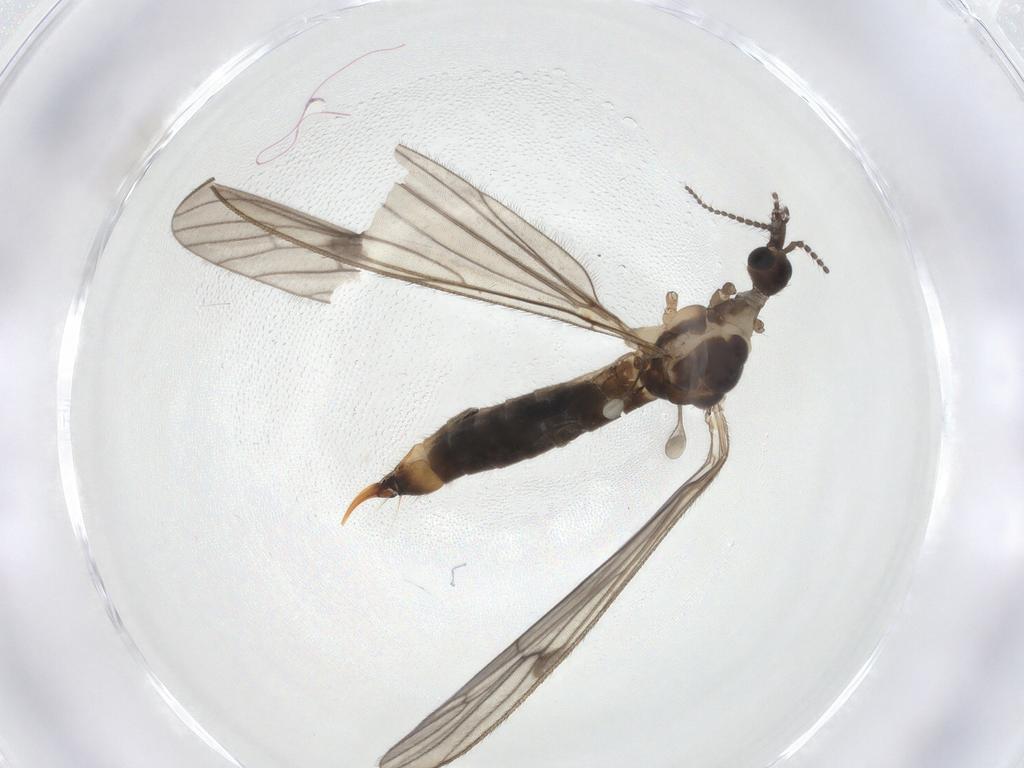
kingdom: Animalia
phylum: Arthropoda
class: Insecta
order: Diptera
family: Limoniidae
